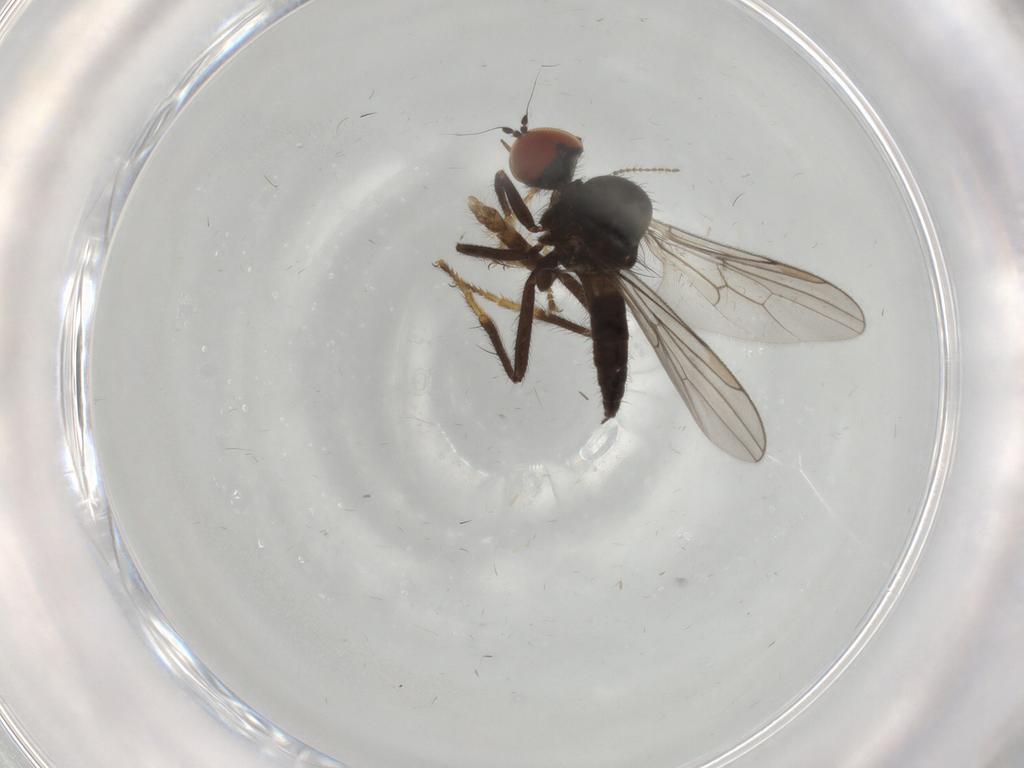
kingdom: Animalia
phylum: Arthropoda
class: Insecta
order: Diptera
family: Hybotidae
